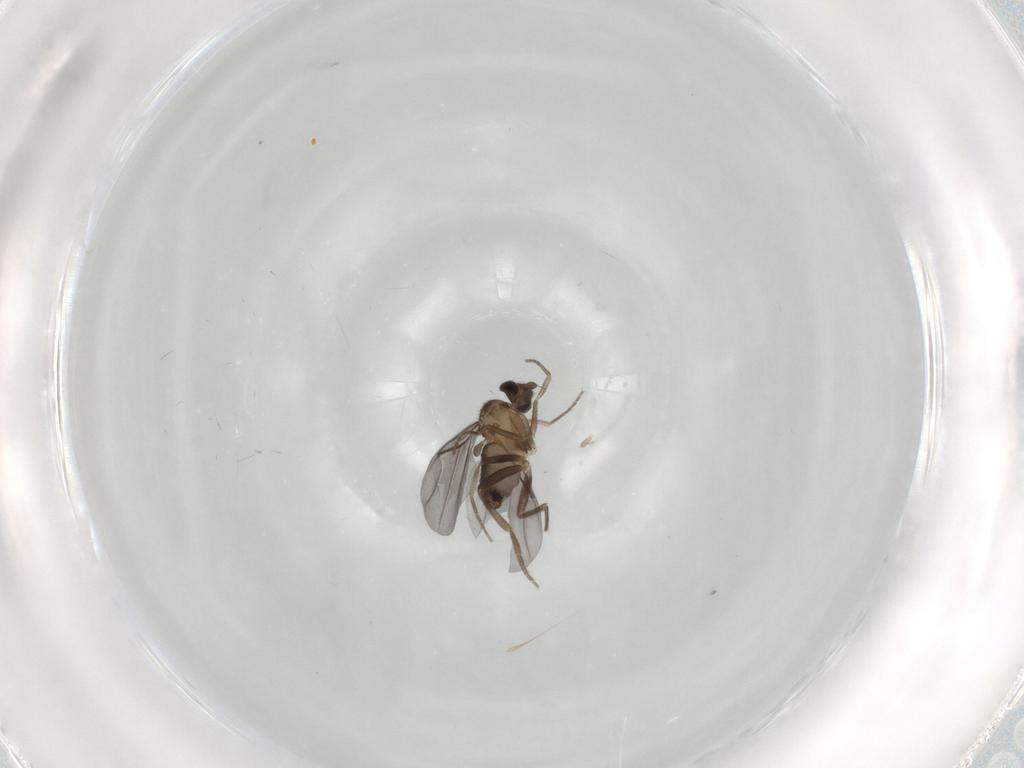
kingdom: Animalia
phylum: Arthropoda
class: Insecta
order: Diptera
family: Phoridae
